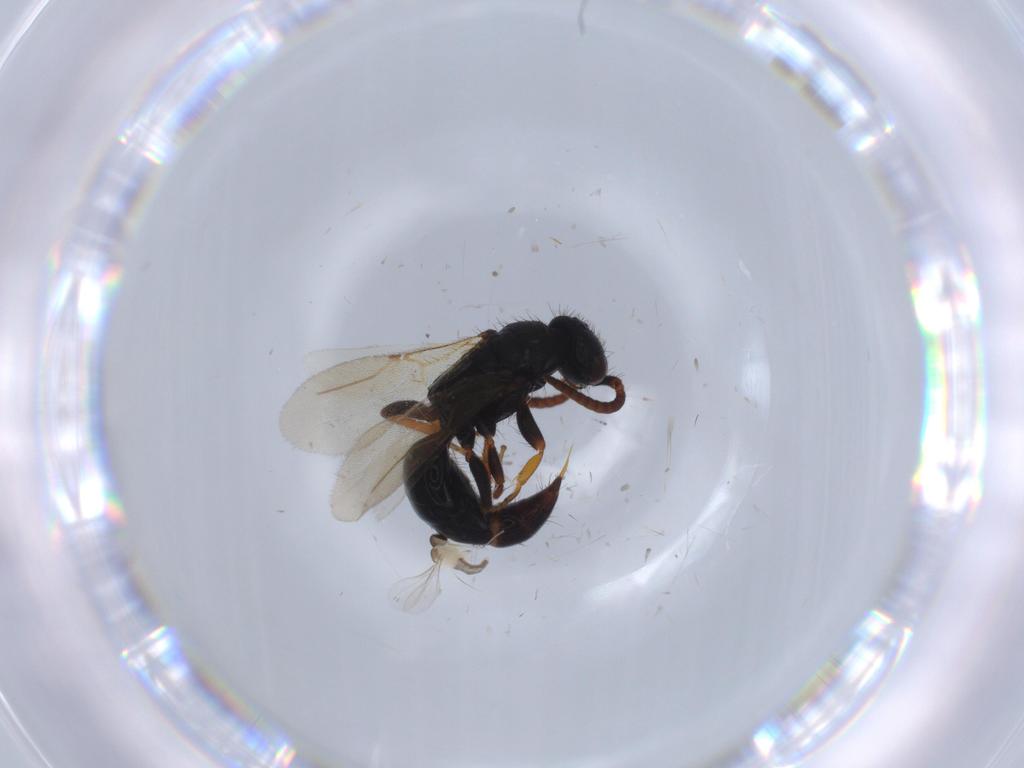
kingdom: Animalia
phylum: Arthropoda
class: Insecta
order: Hymenoptera
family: Bethylidae
